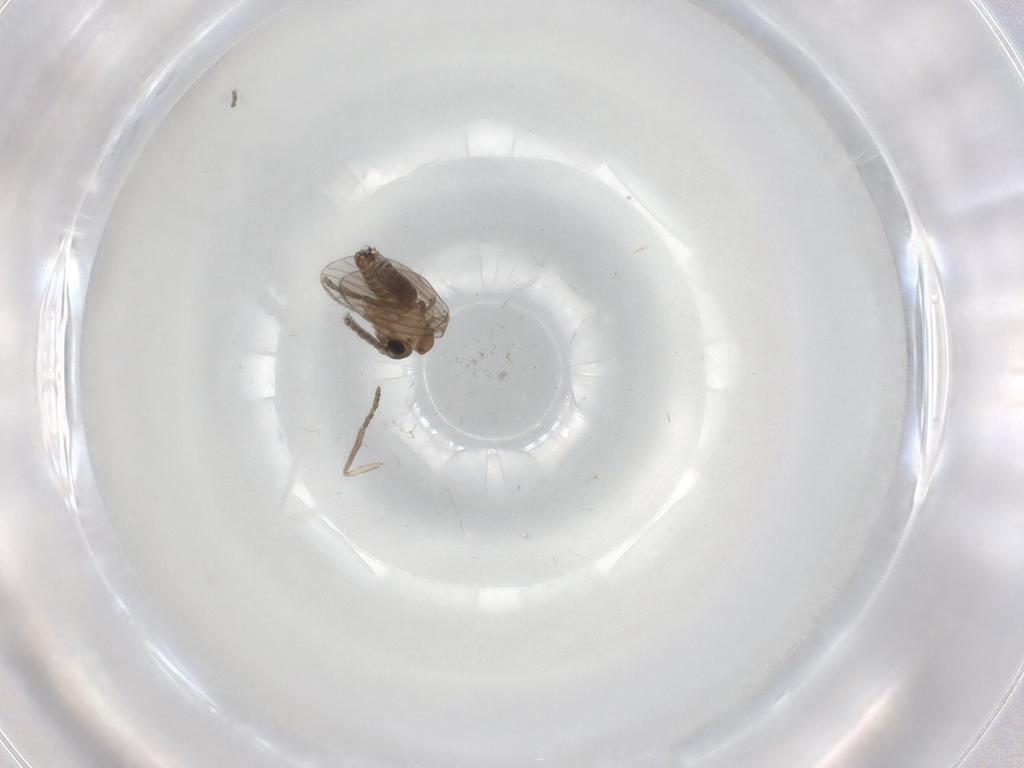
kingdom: Animalia
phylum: Arthropoda
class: Insecta
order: Diptera
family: Psychodidae
